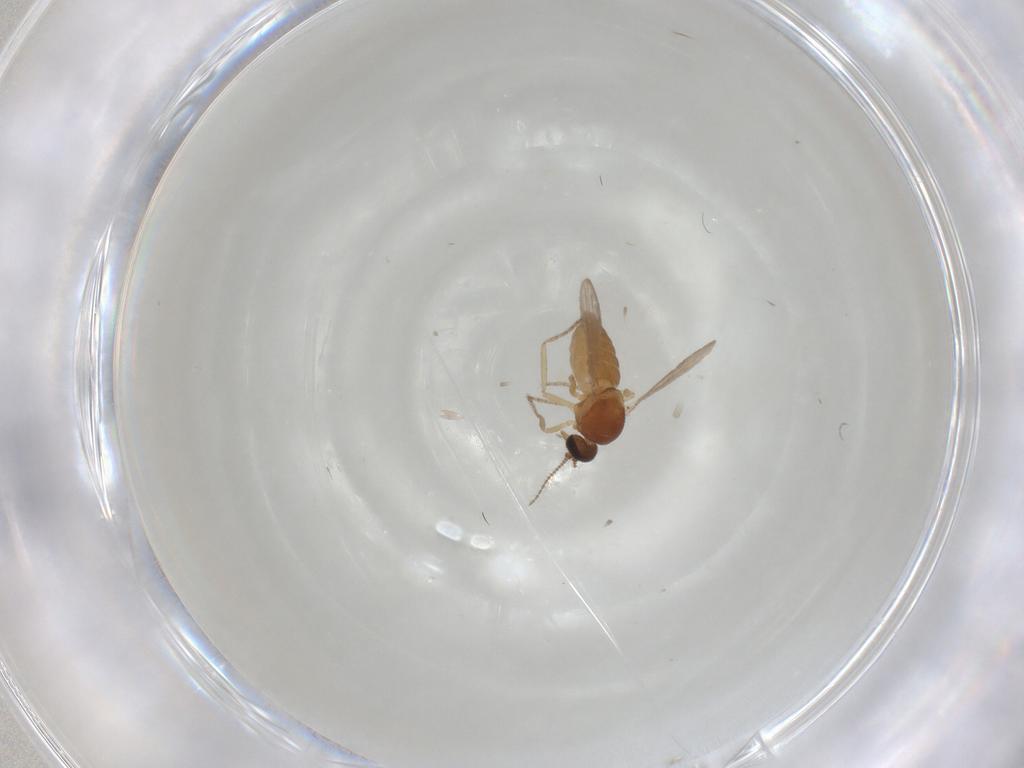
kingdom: Animalia
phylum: Arthropoda
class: Insecta
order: Diptera
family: Ceratopogonidae
